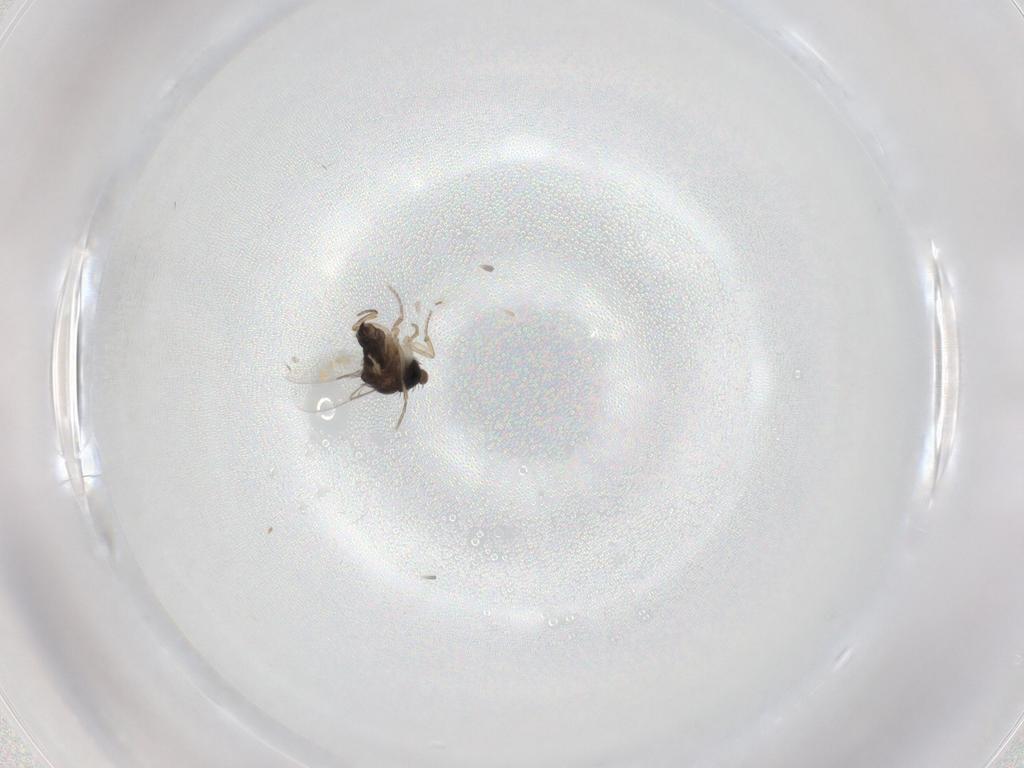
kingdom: Animalia
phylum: Arthropoda
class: Insecta
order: Diptera
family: Phoridae
